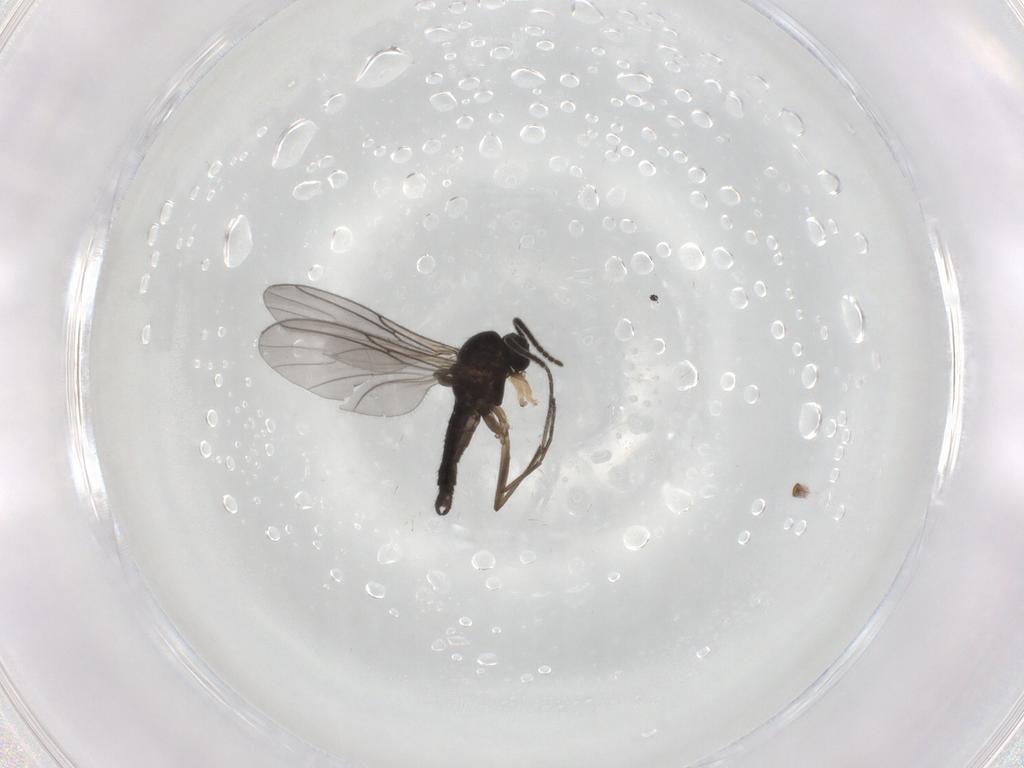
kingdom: Animalia
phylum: Arthropoda
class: Insecta
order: Diptera
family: Sciaridae
